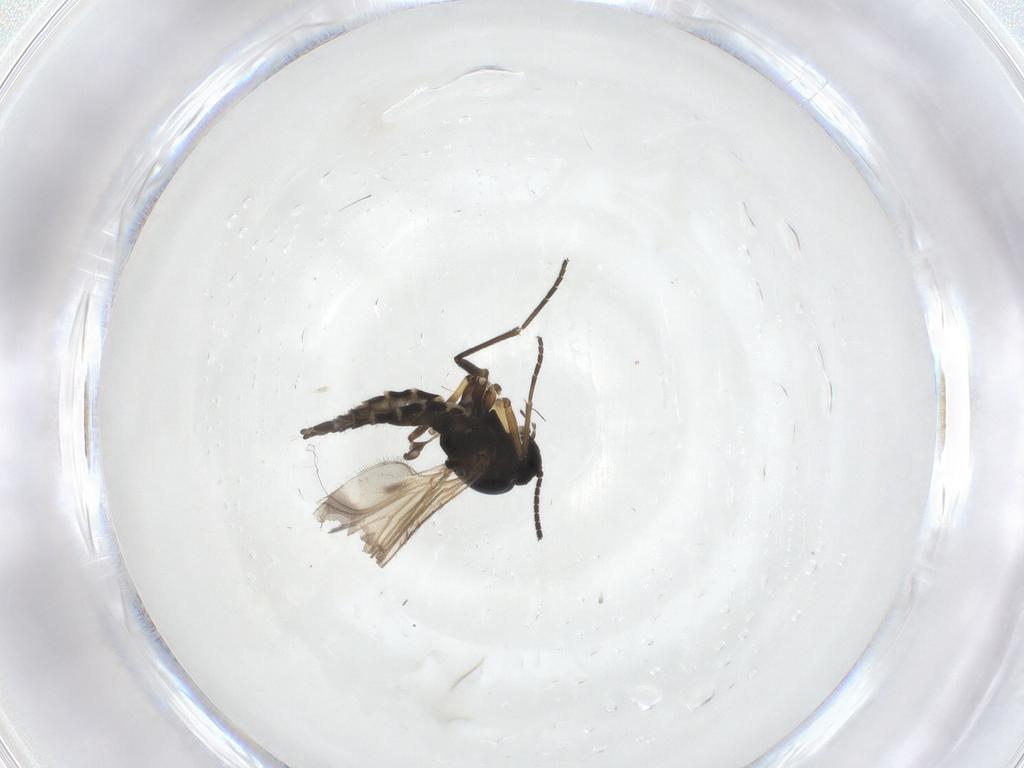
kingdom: Animalia
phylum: Arthropoda
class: Insecta
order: Diptera
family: Sciaridae
